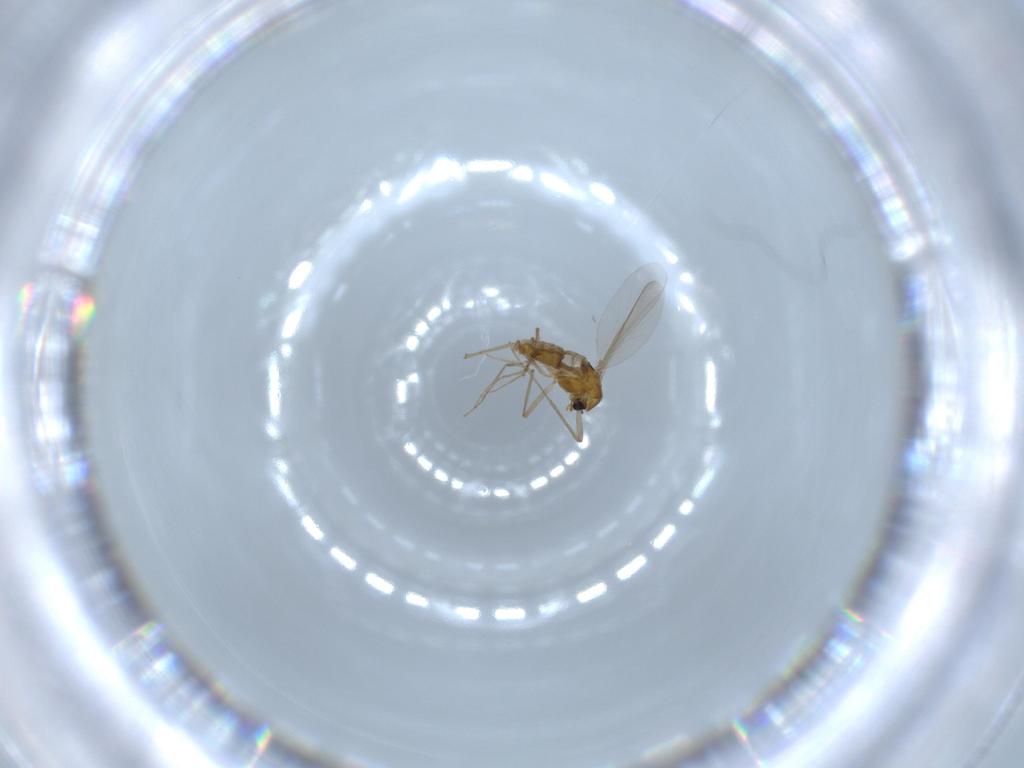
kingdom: Animalia
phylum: Arthropoda
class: Insecta
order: Diptera
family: Chironomidae
